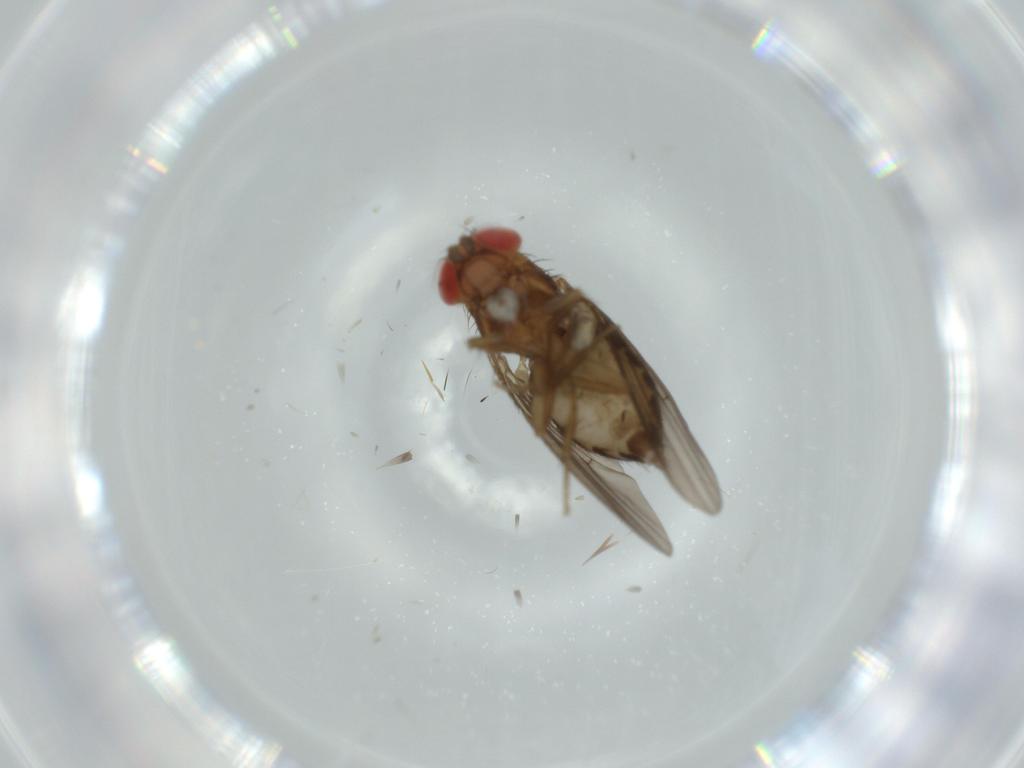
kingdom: Animalia
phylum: Arthropoda
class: Insecta
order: Diptera
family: Drosophilidae
